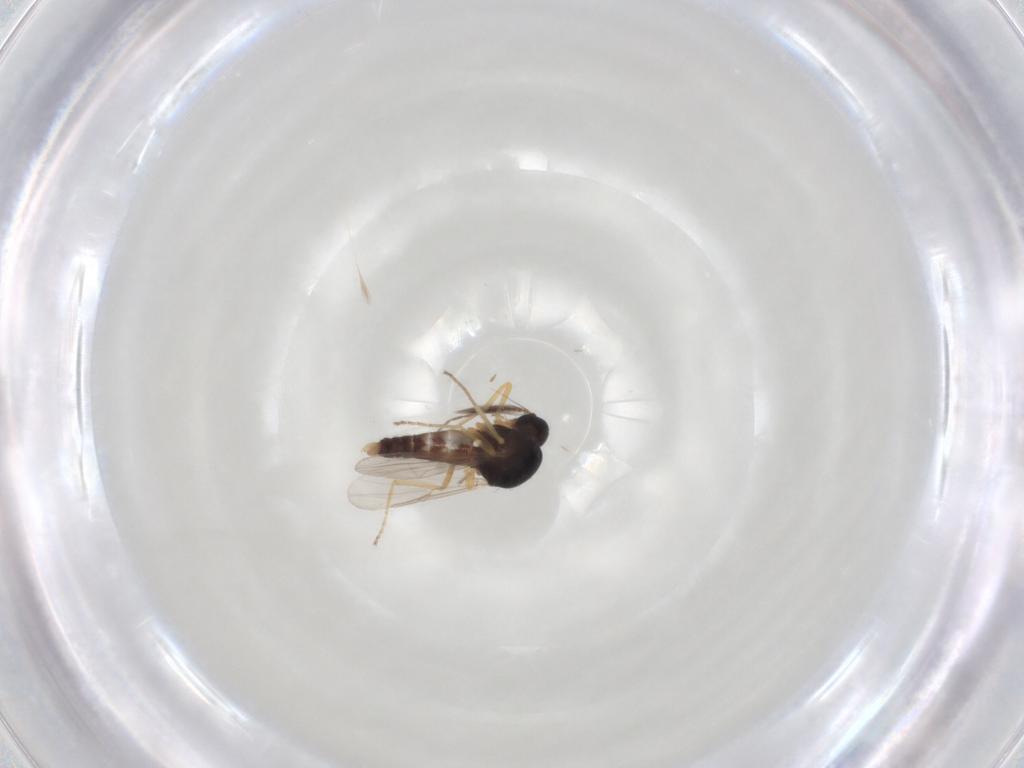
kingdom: Animalia
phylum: Arthropoda
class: Insecta
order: Diptera
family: Ceratopogonidae
